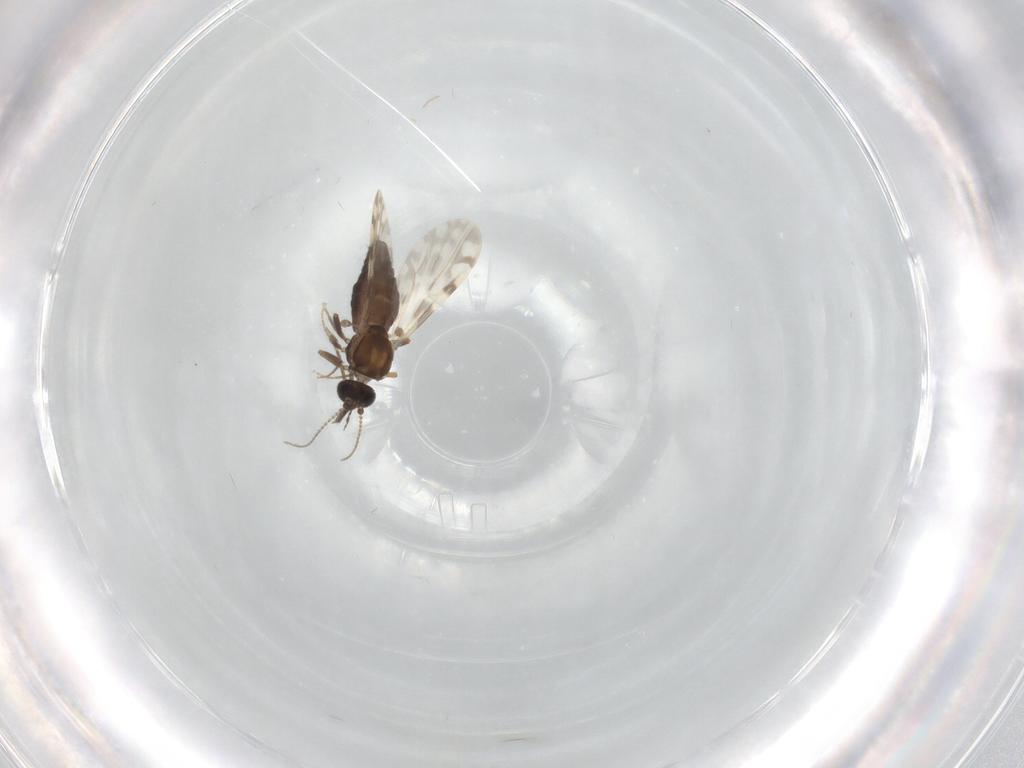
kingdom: Animalia
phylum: Arthropoda
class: Insecta
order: Diptera
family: Ceratopogonidae
